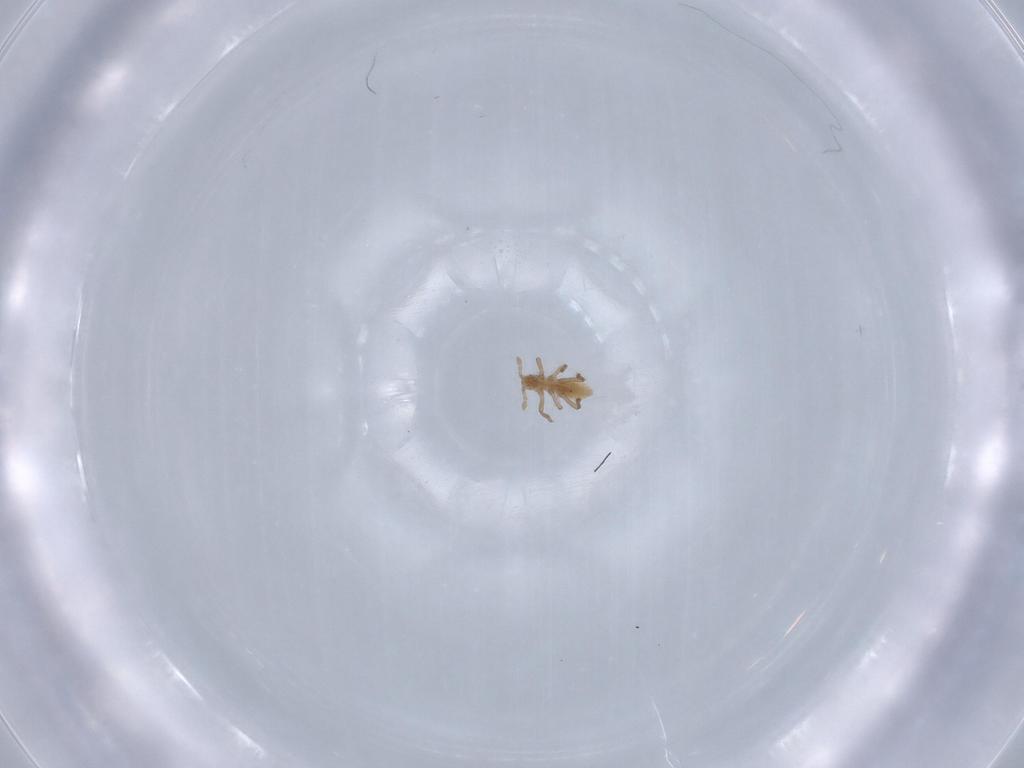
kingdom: Animalia
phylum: Arthropoda
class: Insecta
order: Hemiptera
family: Aphididae
